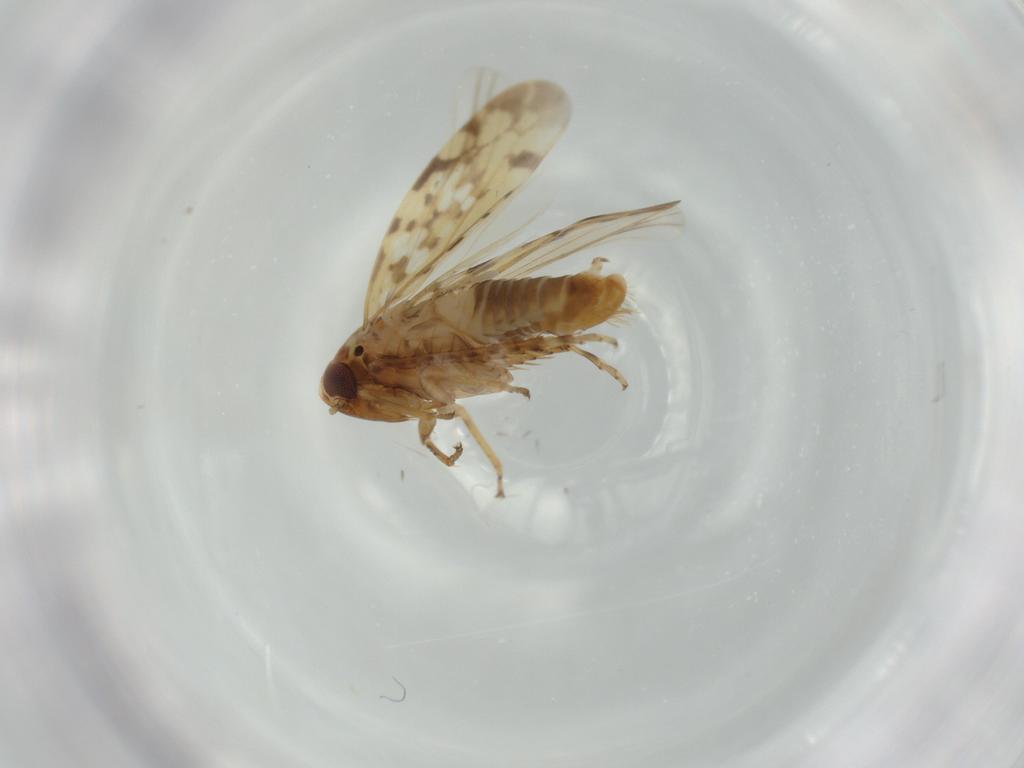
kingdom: Animalia
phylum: Arthropoda
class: Insecta
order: Hemiptera
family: Cicadellidae
